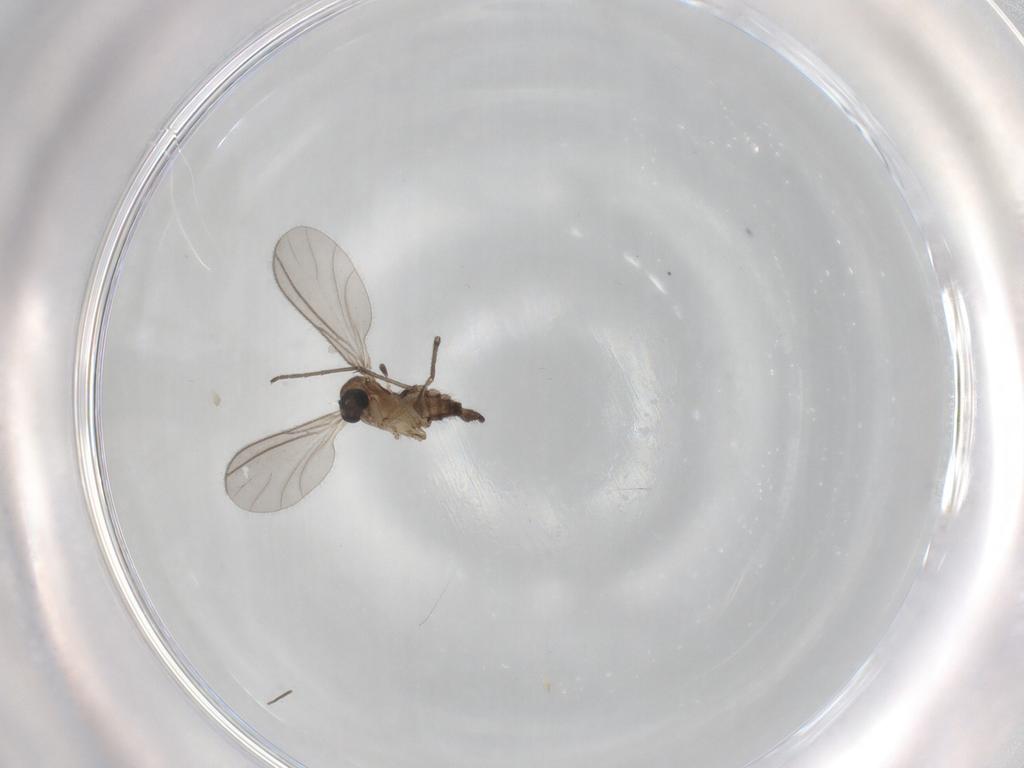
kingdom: Animalia
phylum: Arthropoda
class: Insecta
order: Diptera
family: Sciaridae
